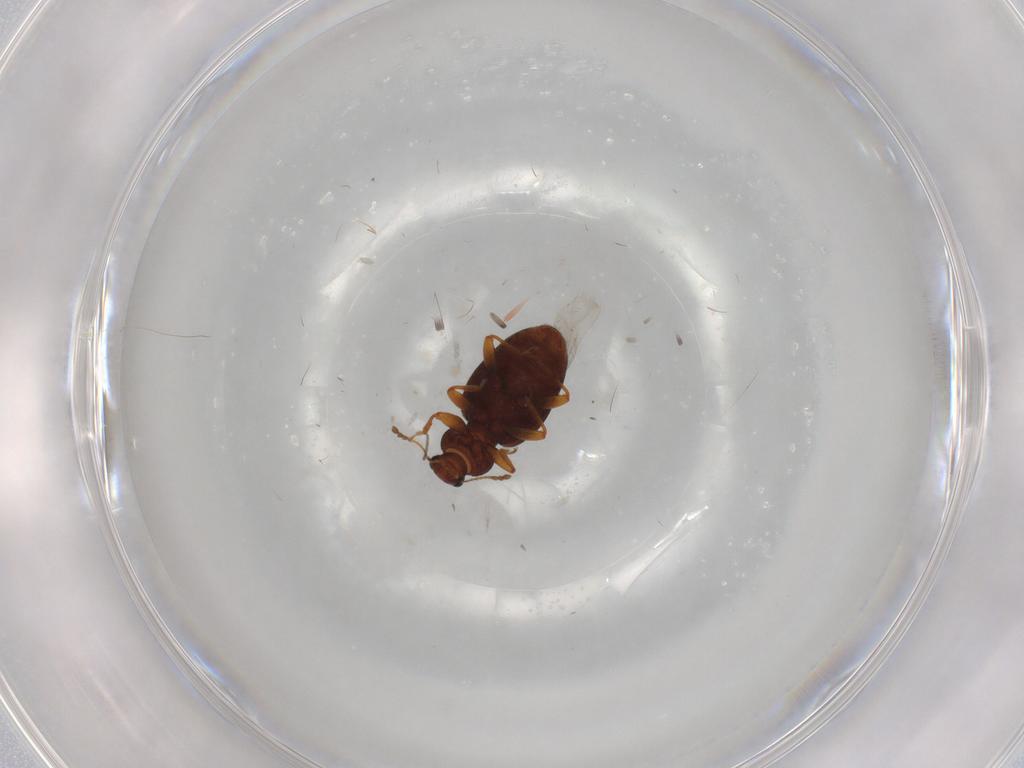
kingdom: Animalia
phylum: Arthropoda
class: Insecta
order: Coleoptera
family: Latridiidae
